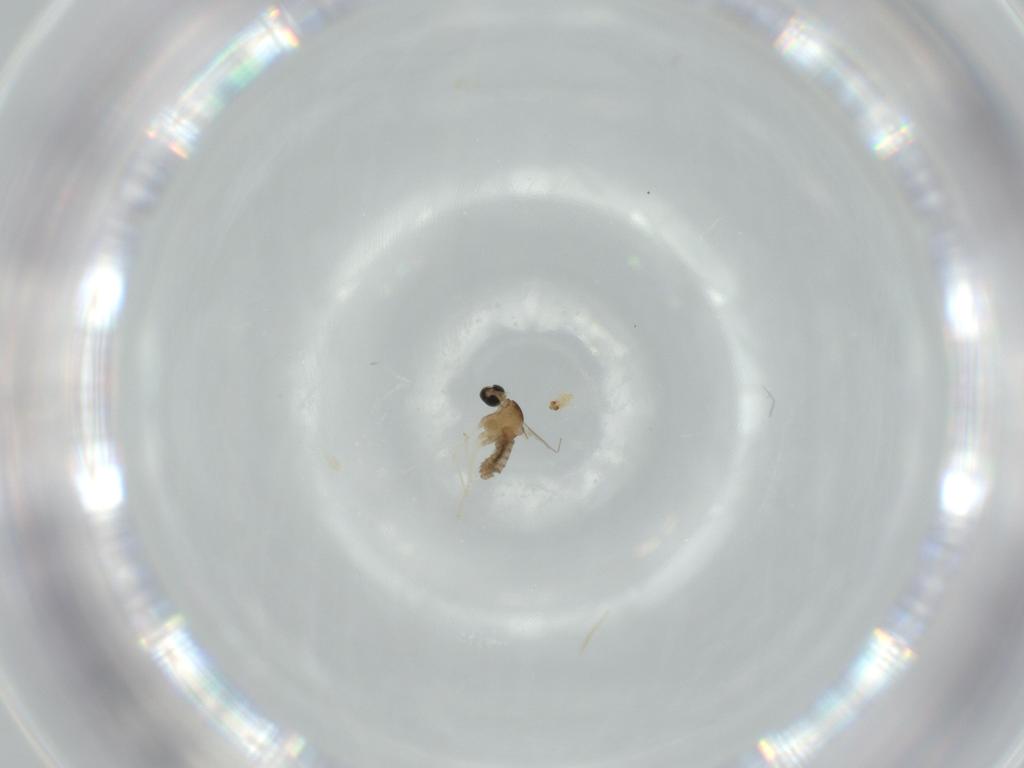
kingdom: Animalia
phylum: Arthropoda
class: Insecta
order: Diptera
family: Cecidomyiidae
